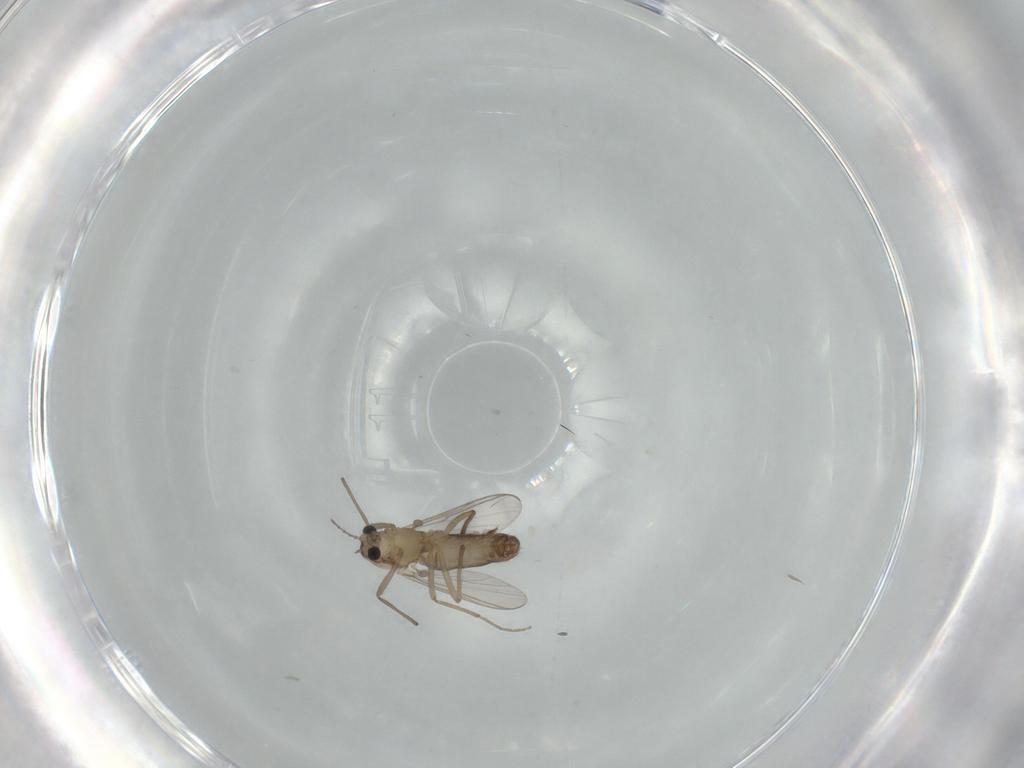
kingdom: Animalia
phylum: Arthropoda
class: Insecta
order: Diptera
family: Chironomidae
